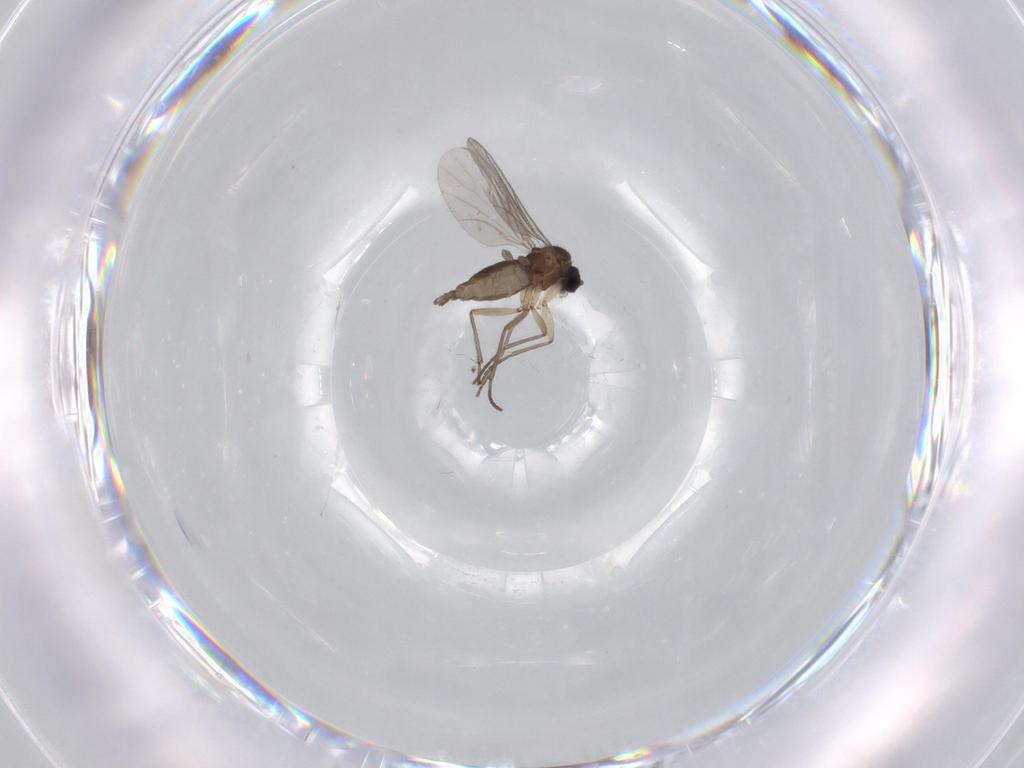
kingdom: Animalia
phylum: Arthropoda
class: Insecta
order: Diptera
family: Sciaridae
